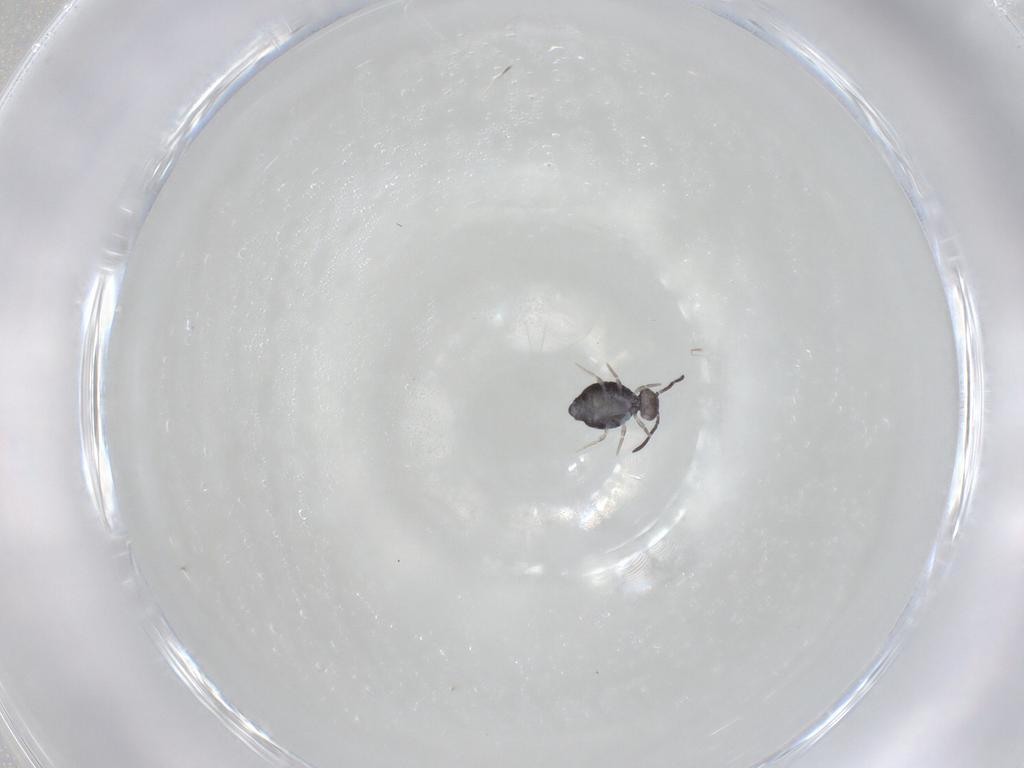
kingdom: Animalia
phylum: Arthropoda
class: Collembola
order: Symphypleona
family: Katiannidae
